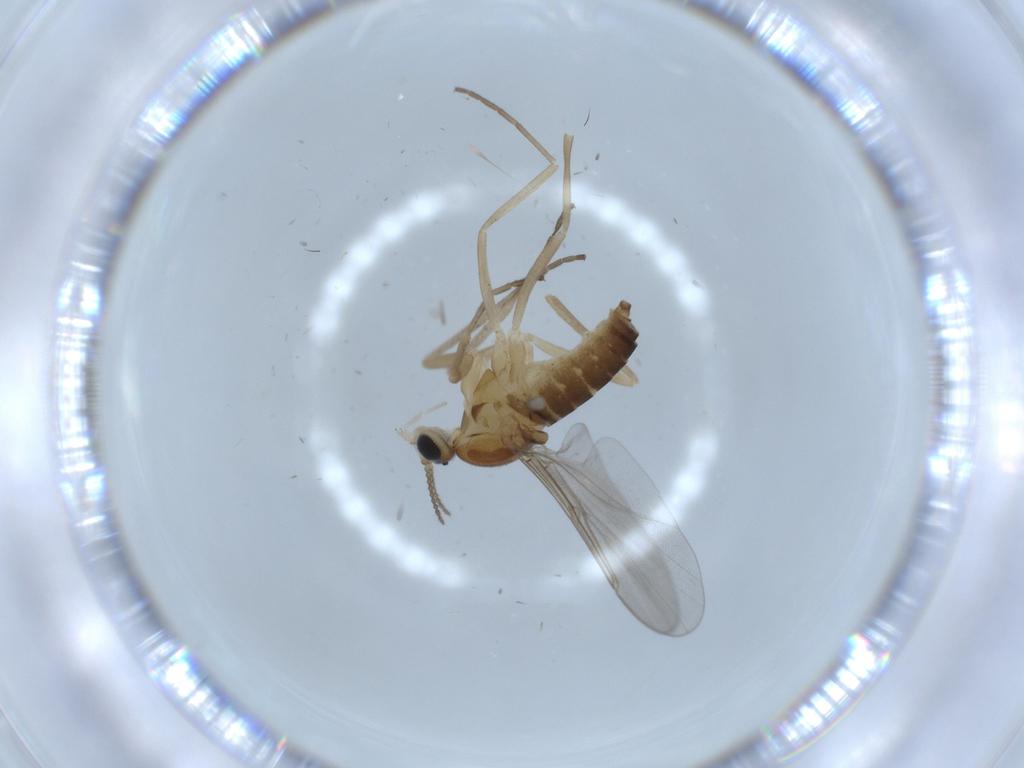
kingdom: Animalia
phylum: Arthropoda
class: Insecta
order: Diptera
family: Cecidomyiidae
